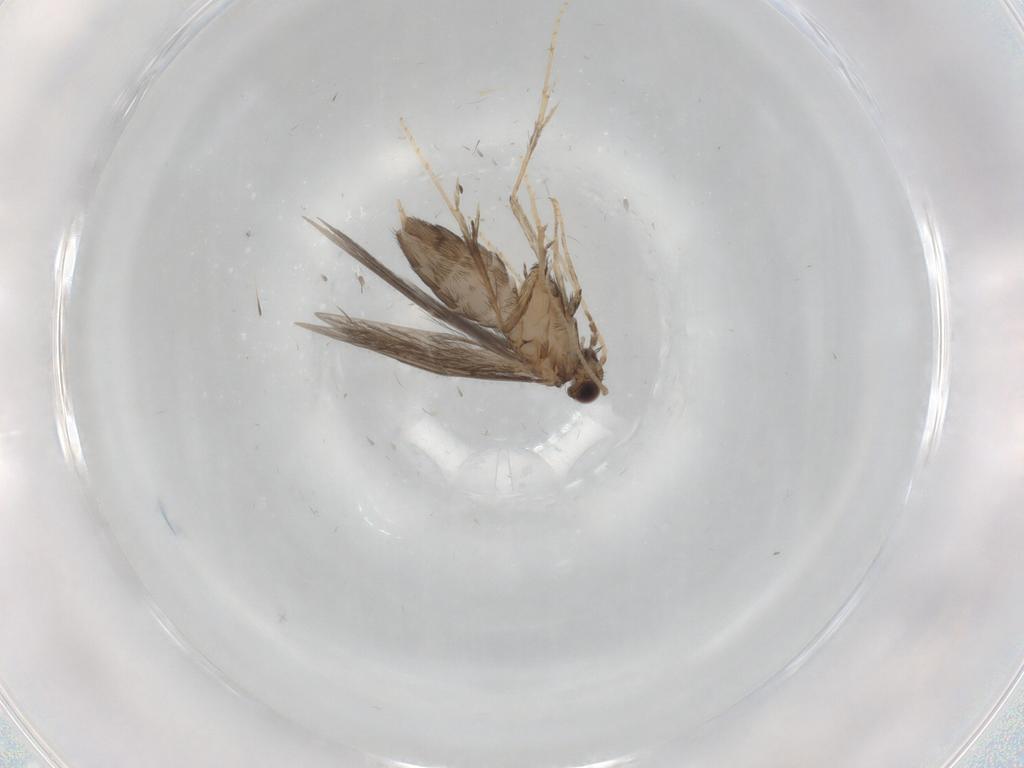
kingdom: Animalia
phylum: Arthropoda
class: Insecta
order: Trichoptera
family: Hydroptilidae
